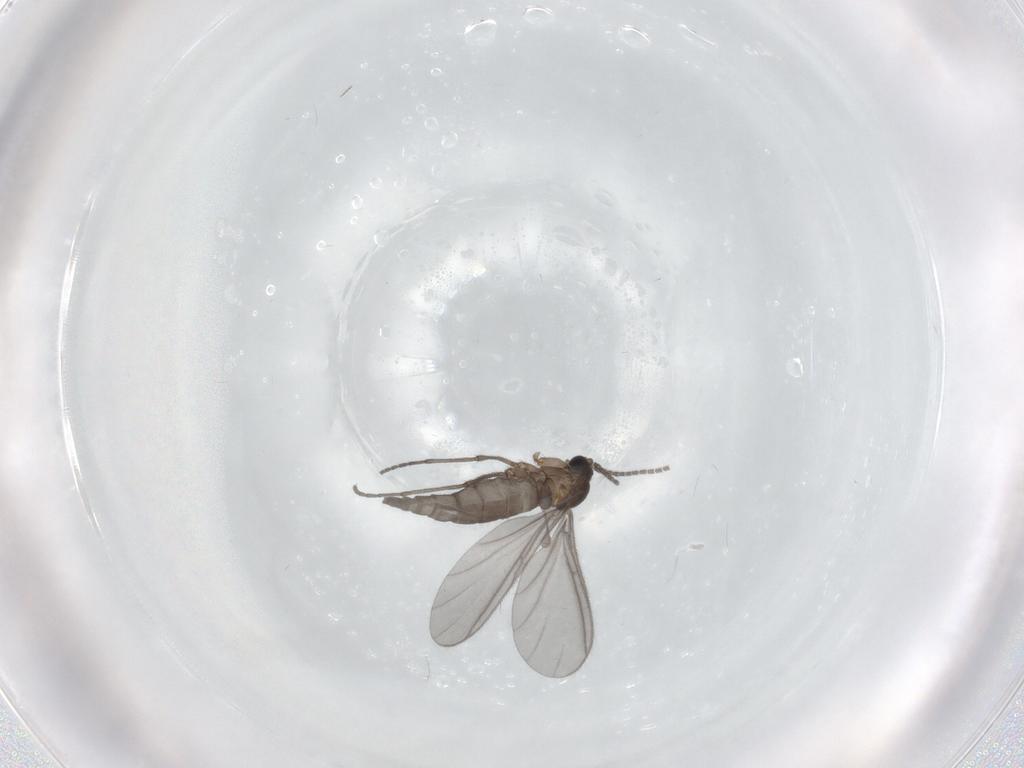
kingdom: Animalia
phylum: Arthropoda
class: Insecta
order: Diptera
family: Sciaridae
